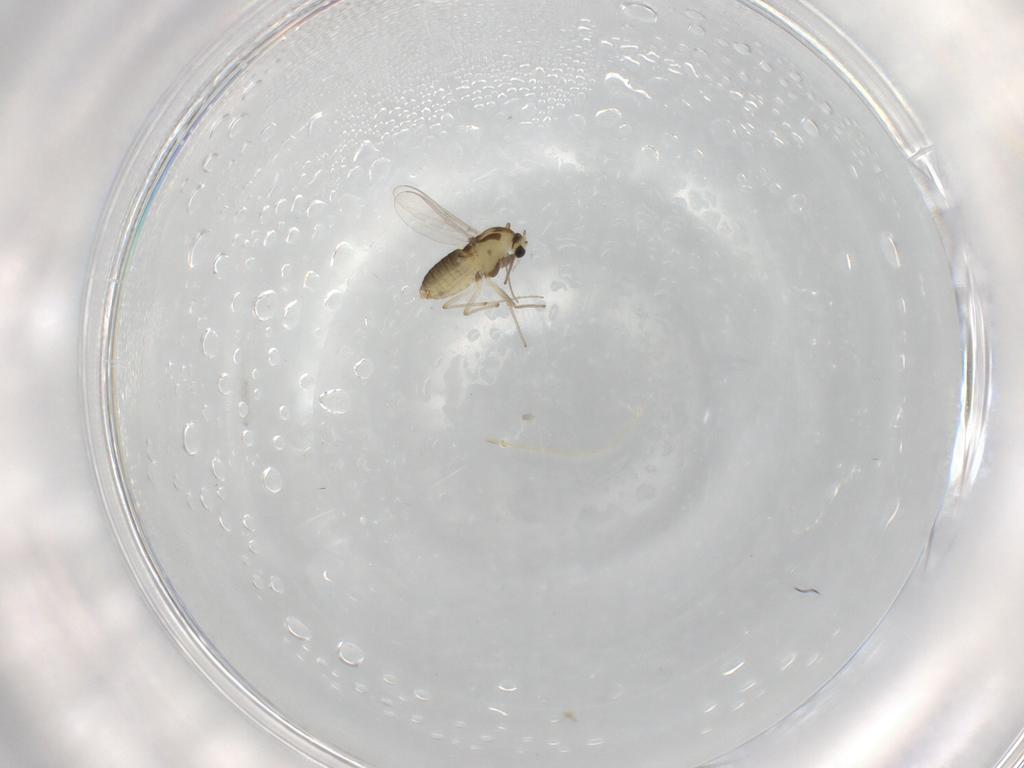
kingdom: Animalia
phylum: Arthropoda
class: Insecta
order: Diptera
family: Chironomidae
